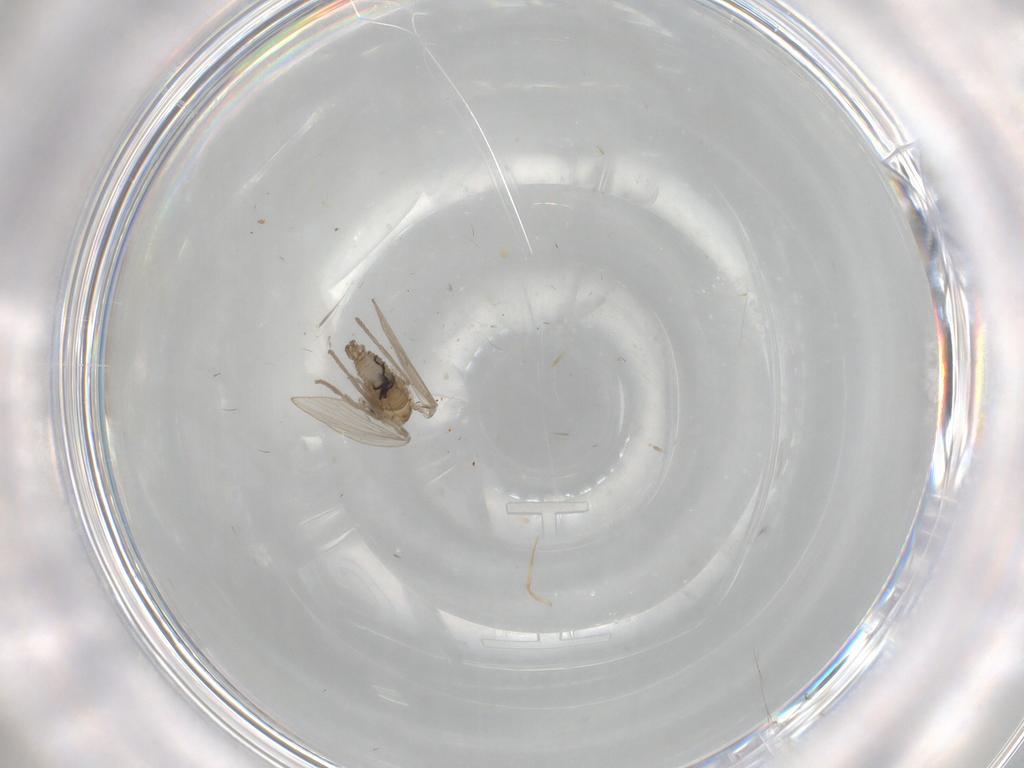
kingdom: Animalia
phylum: Arthropoda
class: Insecta
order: Diptera
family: Psychodidae
